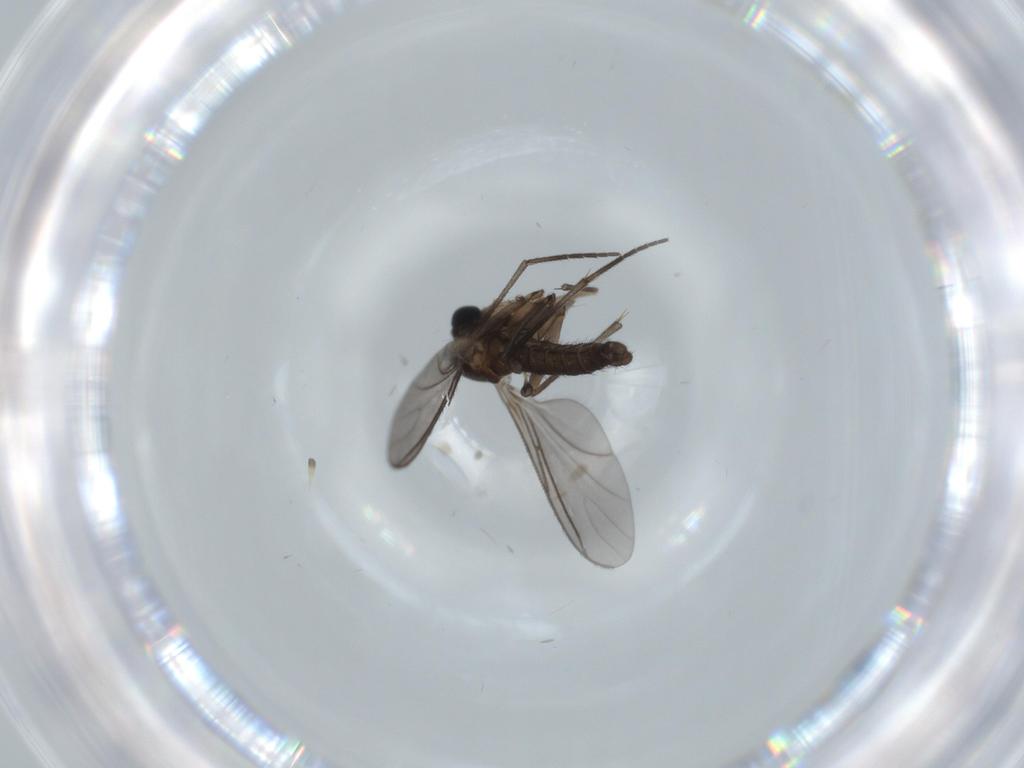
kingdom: Animalia
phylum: Arthropoda
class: Insecta
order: Diptera
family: Sciaridae
